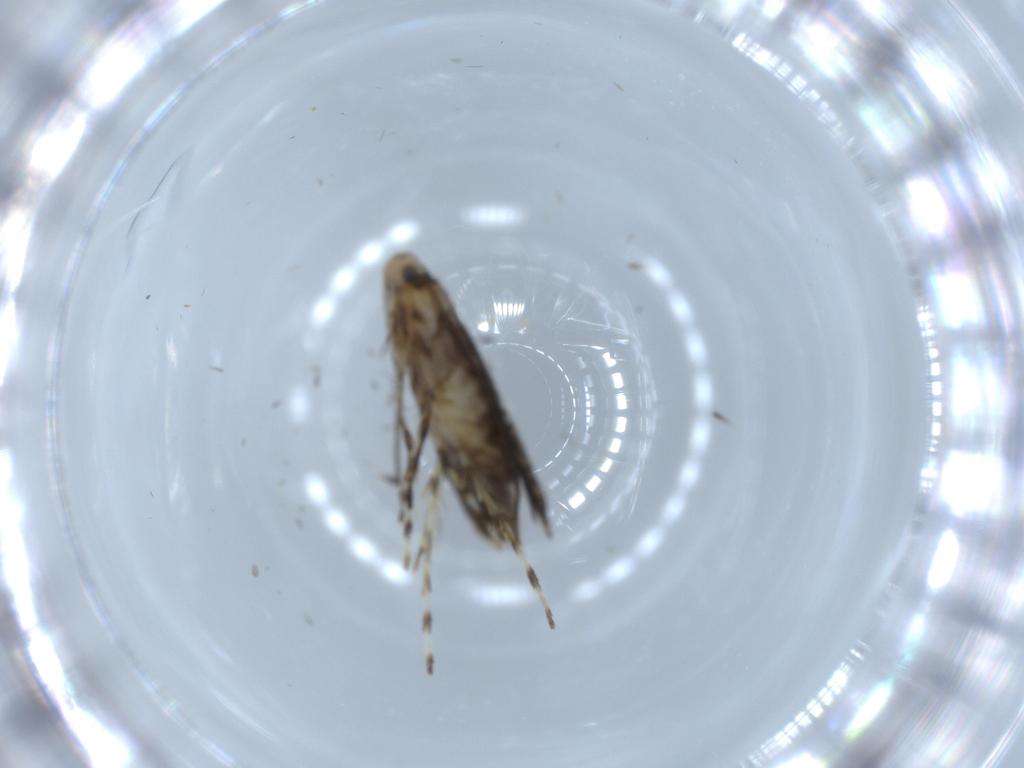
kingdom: Animalia
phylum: Arthropoda
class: Insecta
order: Lepidoptera
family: Gracillariidae
